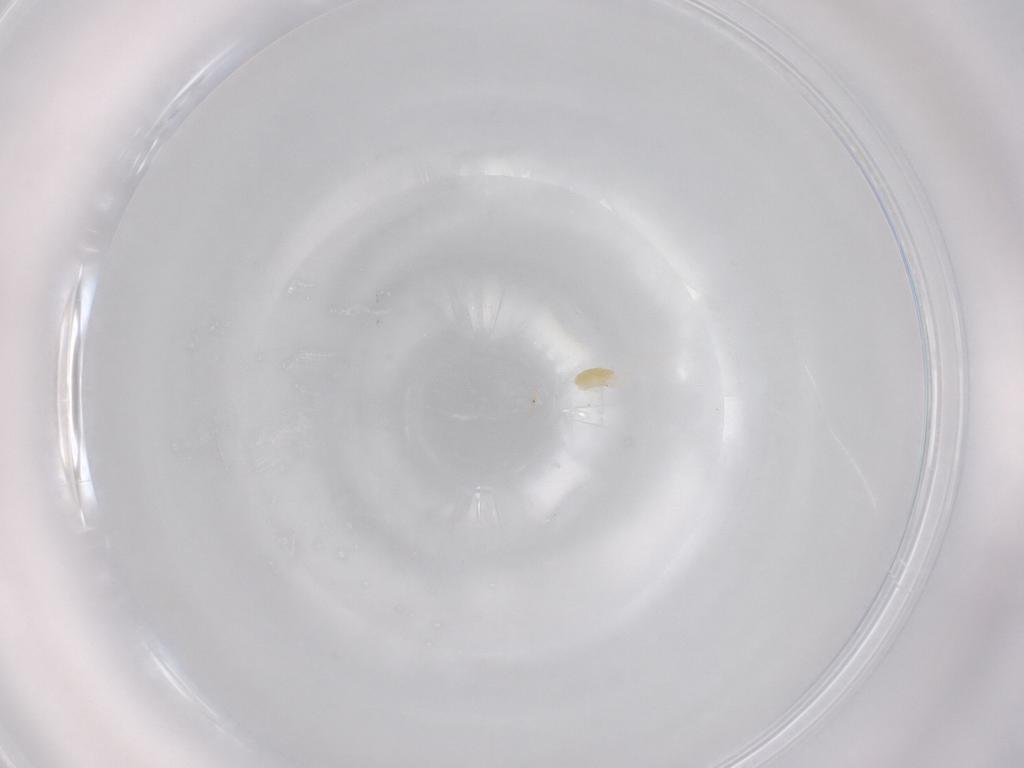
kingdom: Animalia
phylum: Arthropoda
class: Arachnida
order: Trombidiformes
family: Eupodidae
